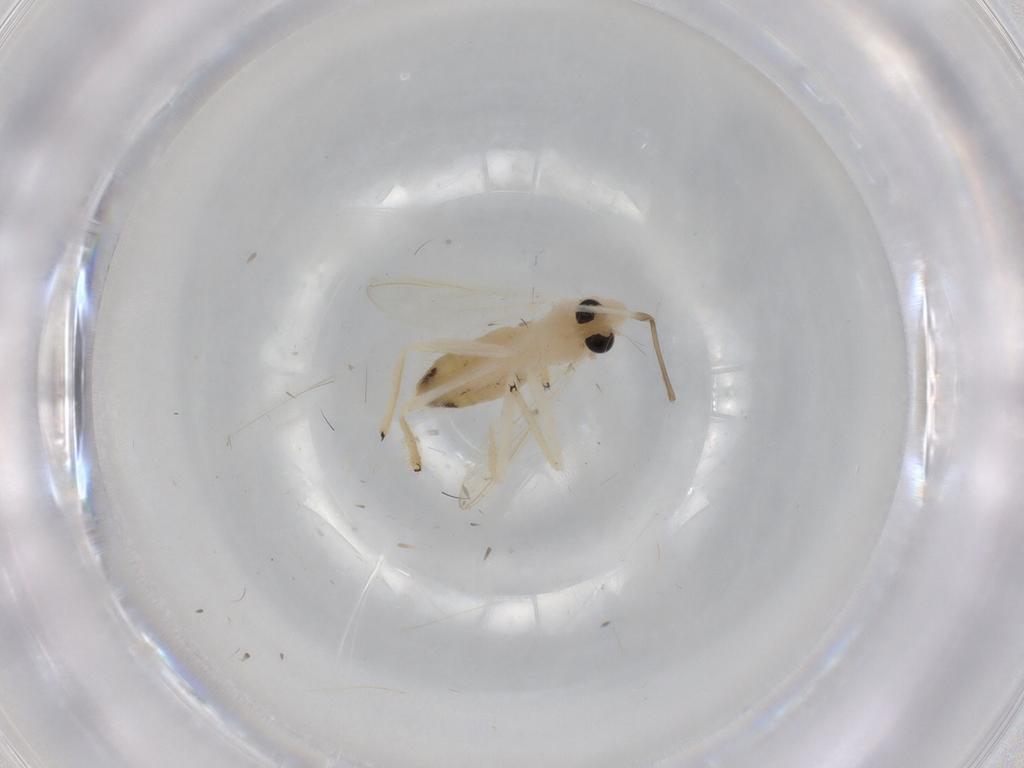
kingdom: Animalia
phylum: Arthropoda
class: Insecta
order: Diptera
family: Chironomidae
